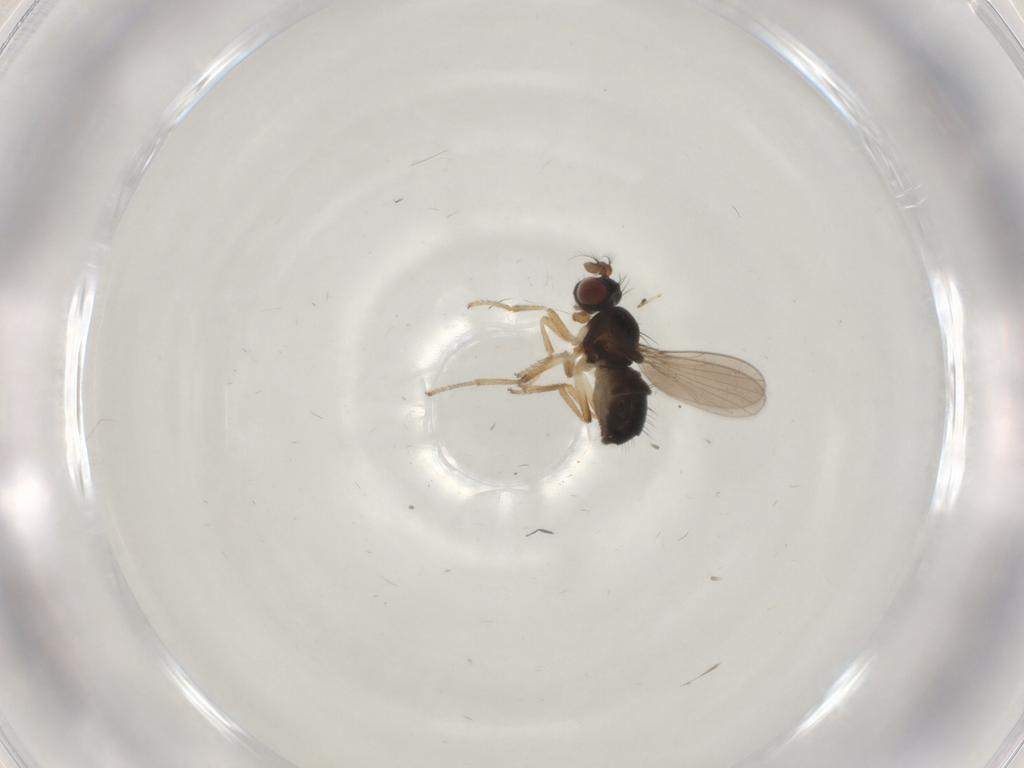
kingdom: Animalia
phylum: Arthropoda
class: Insecta
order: Diptera
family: Ephydridae
